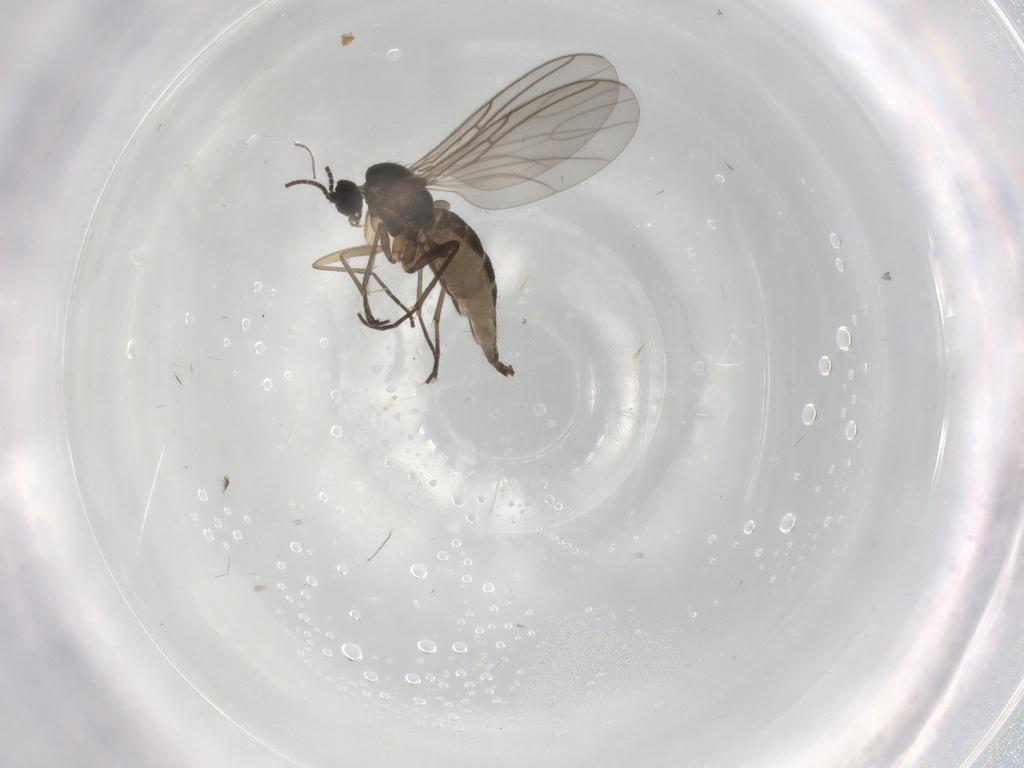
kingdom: Animalia
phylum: Arthropoda
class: Insecta
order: Diptera
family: Sciaridae
